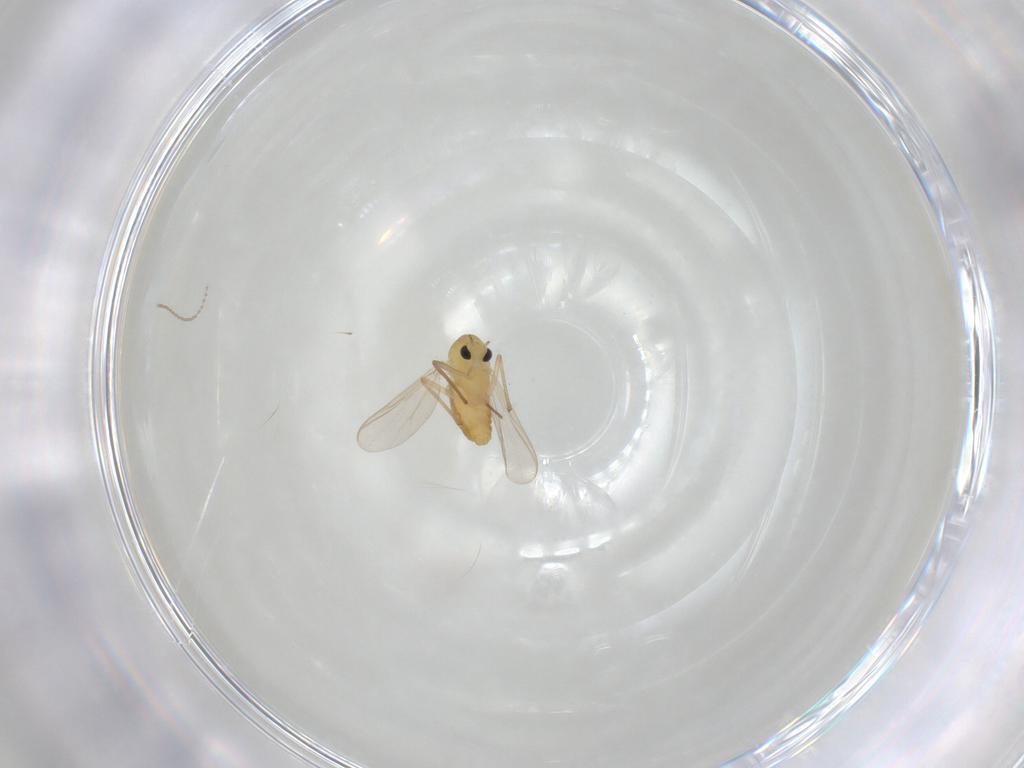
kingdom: Animalia
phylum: Arthropoda
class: Insecta
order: Diptera
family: Chironomidae
